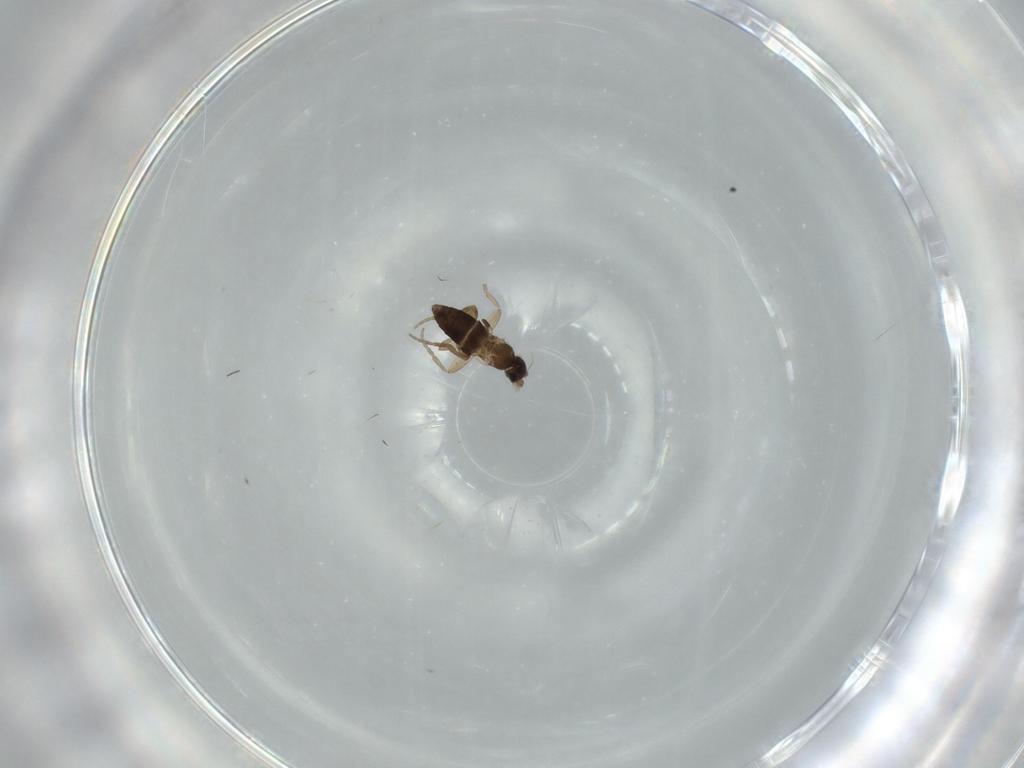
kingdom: Animalia
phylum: Arthropoda
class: Insecta
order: Diptera
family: Phoridae
